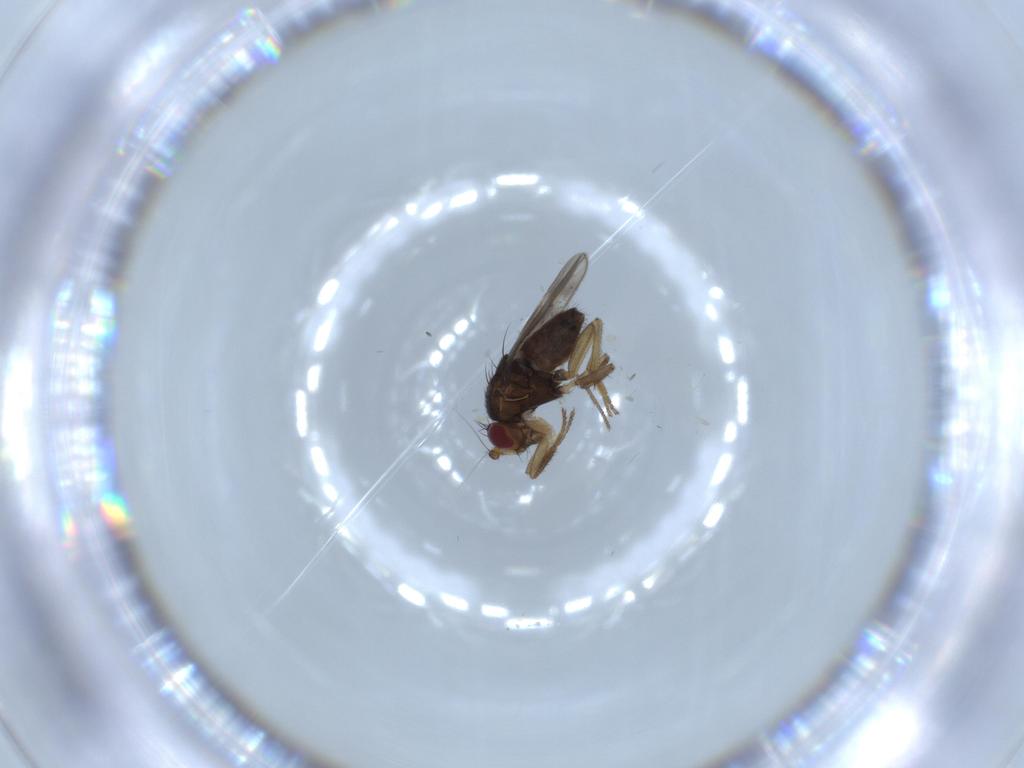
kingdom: Animalia
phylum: Arthropoda
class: Insecta
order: Diptera
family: Sphaeroceridae
